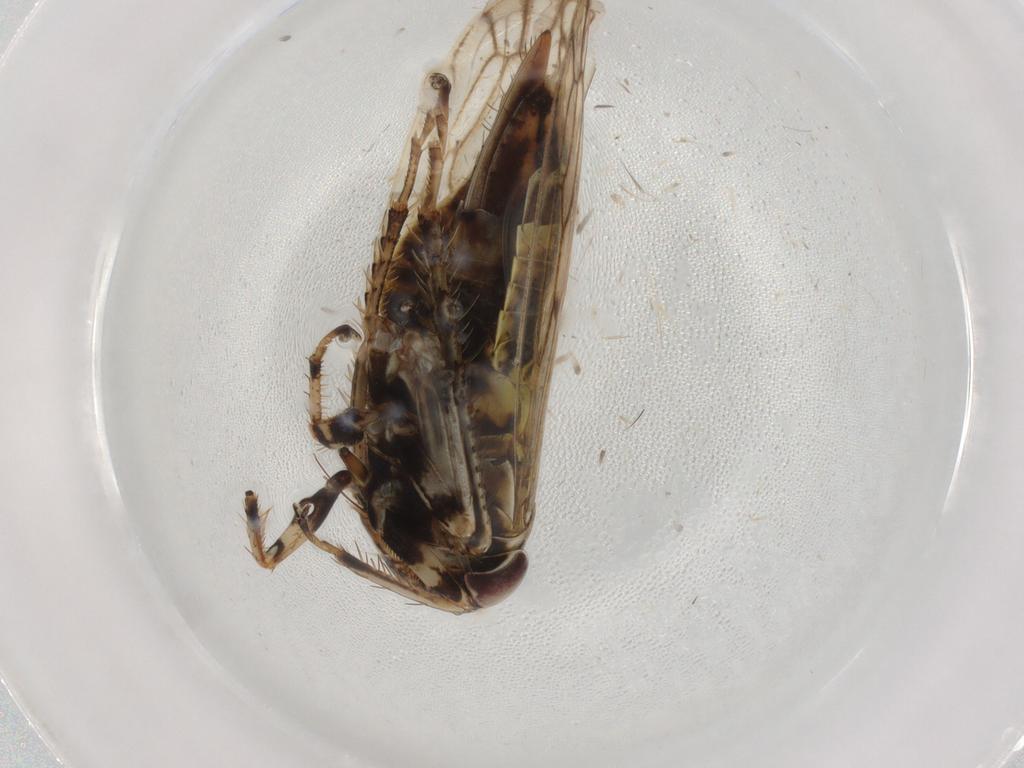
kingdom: Animalia
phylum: Arthropoda
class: Insecta
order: Hemiptera
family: Cicadellidae
